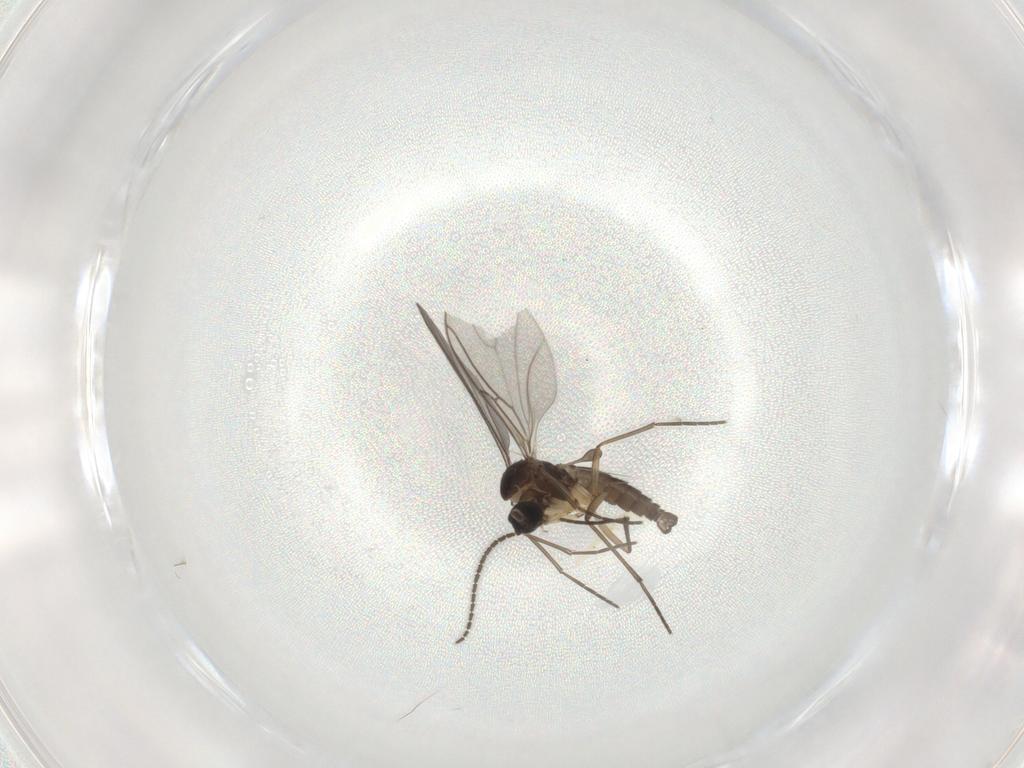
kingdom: Animalia
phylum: Arthropoda
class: Insecta
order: Diptera
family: Sciaridae
